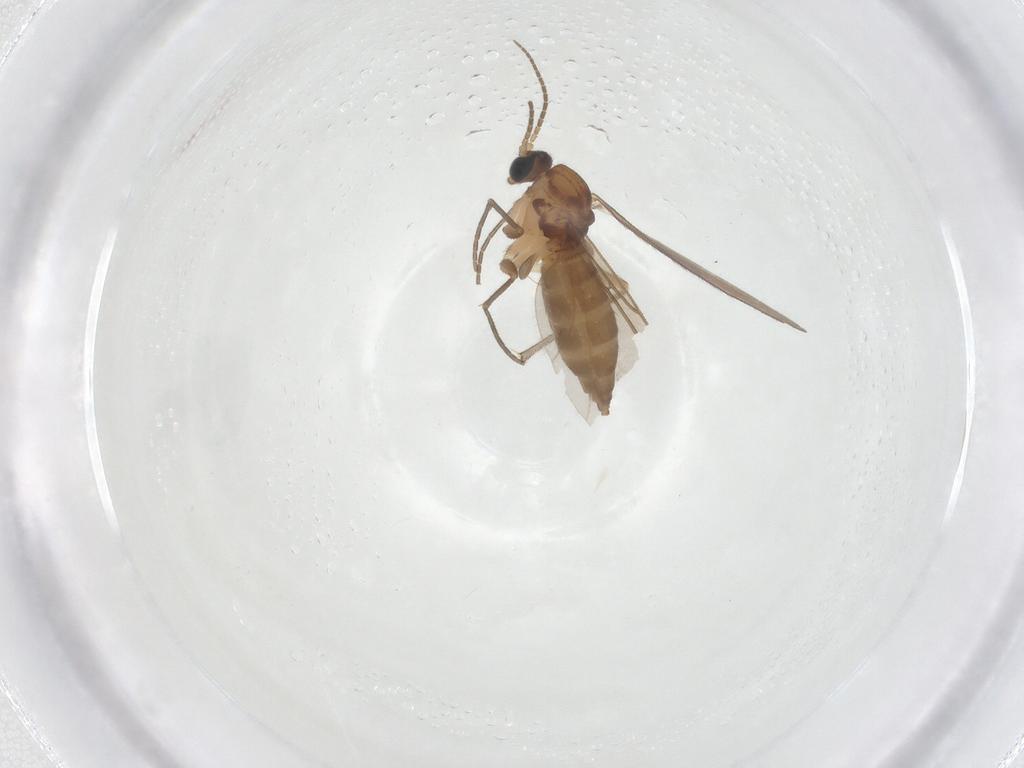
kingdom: Animalia
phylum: Arthropoda
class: Insecta
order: Diptera
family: Sciaridae
